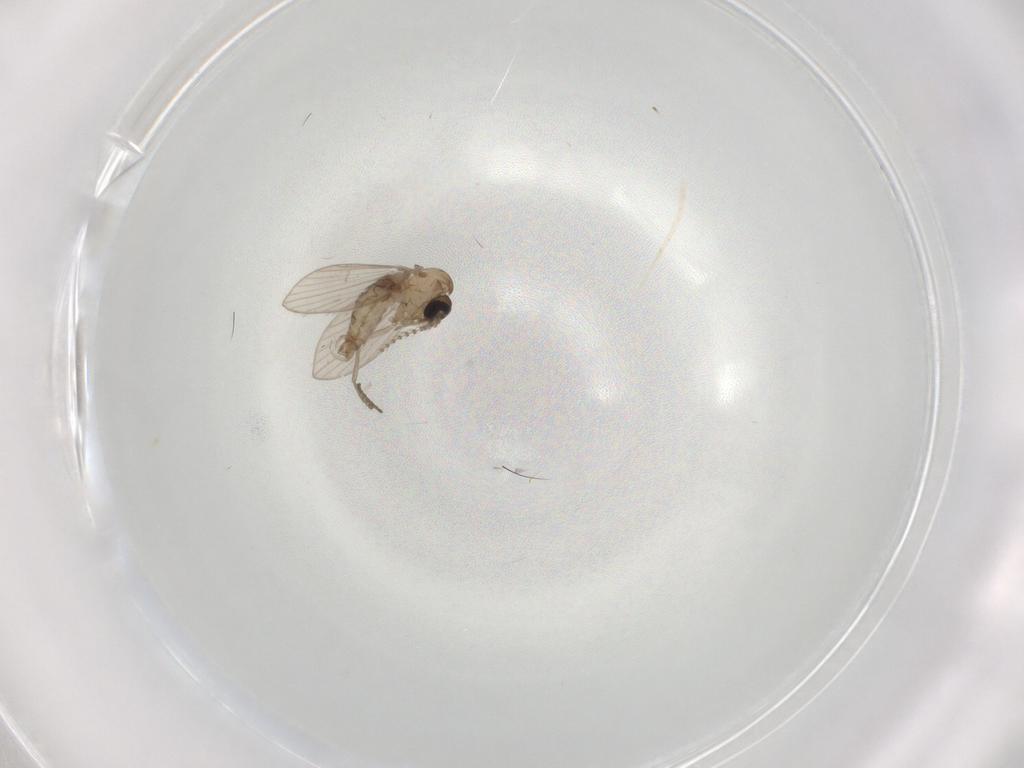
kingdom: Animalia
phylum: Arthropoda
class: Insecta
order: Diptera
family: Psychodidae
